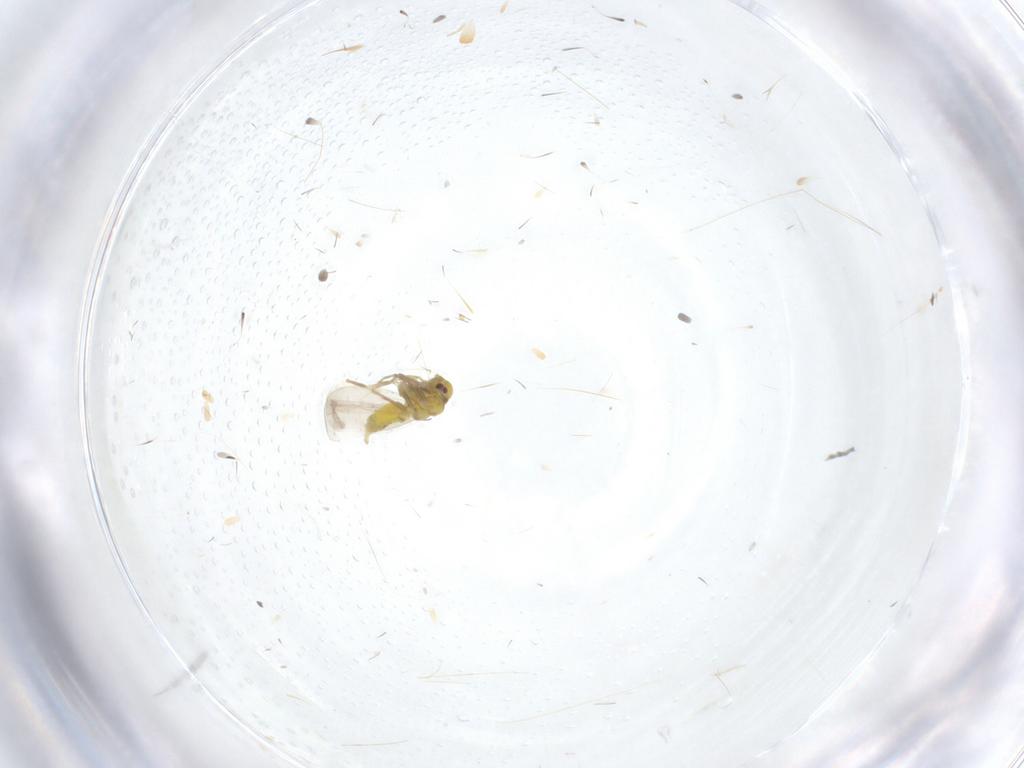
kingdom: Animalia
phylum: Arthropoda
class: Insecta
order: Hemiptera
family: Aleyrodidae
